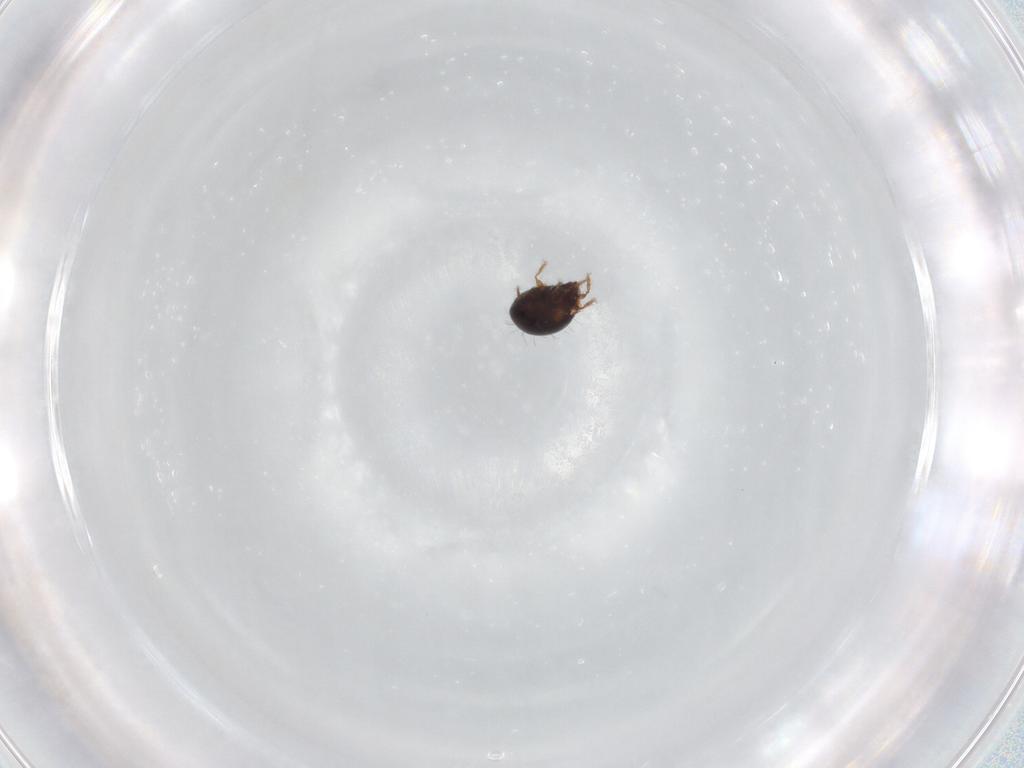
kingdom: Animalia
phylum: Arthropoda
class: Arachnida
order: Sarcoptiformes
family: Humerobatidae
